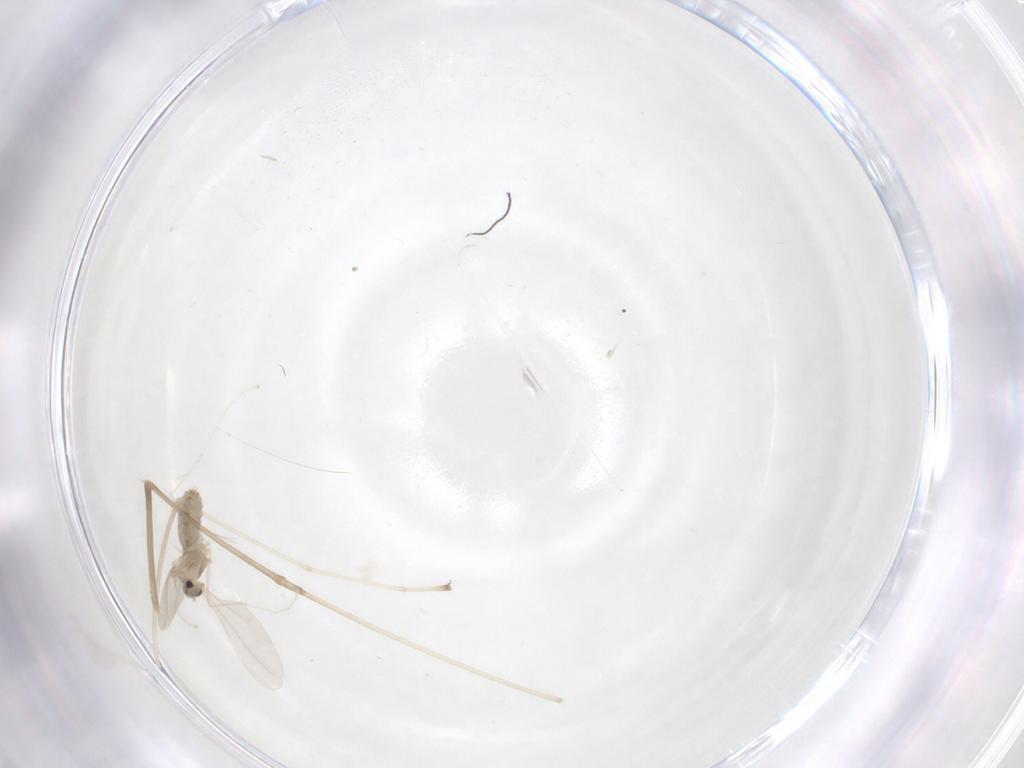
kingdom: Animalia
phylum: Arthropoda
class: Insecta
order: Diptera
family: Cecidomyiidae
